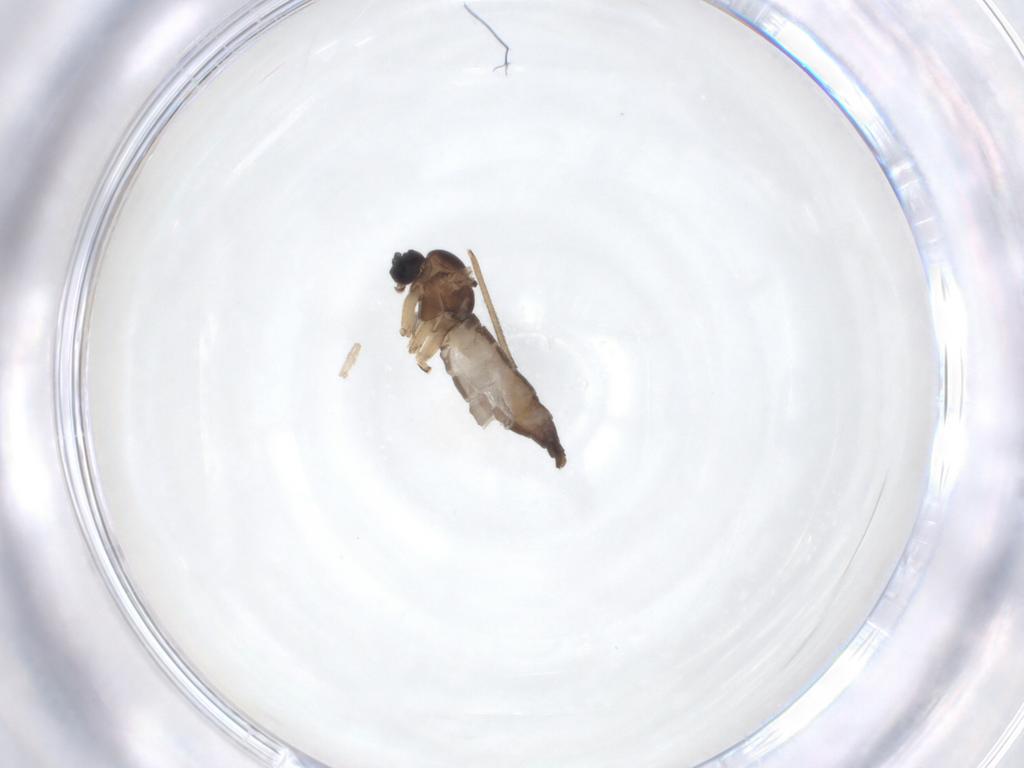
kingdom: Animalia
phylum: Arthropoda
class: Insecta
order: Diptera
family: Sciaridae
